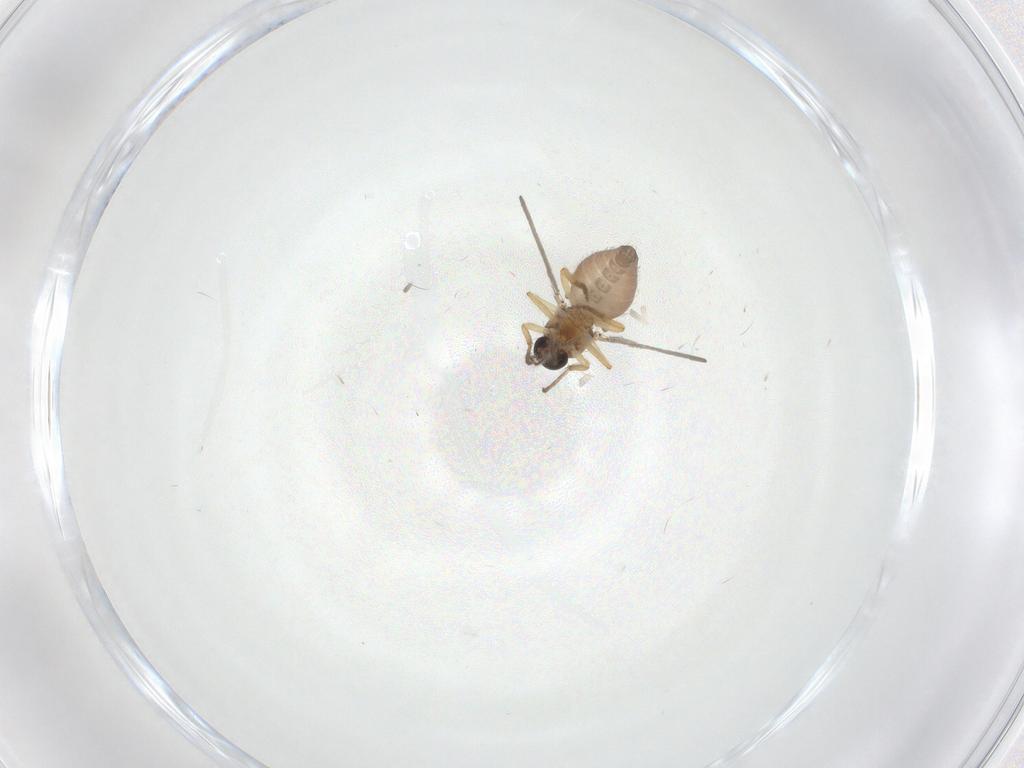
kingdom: Animalia
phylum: Arthropoda
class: Insecta
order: Diptera
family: Ceratopogonidae
